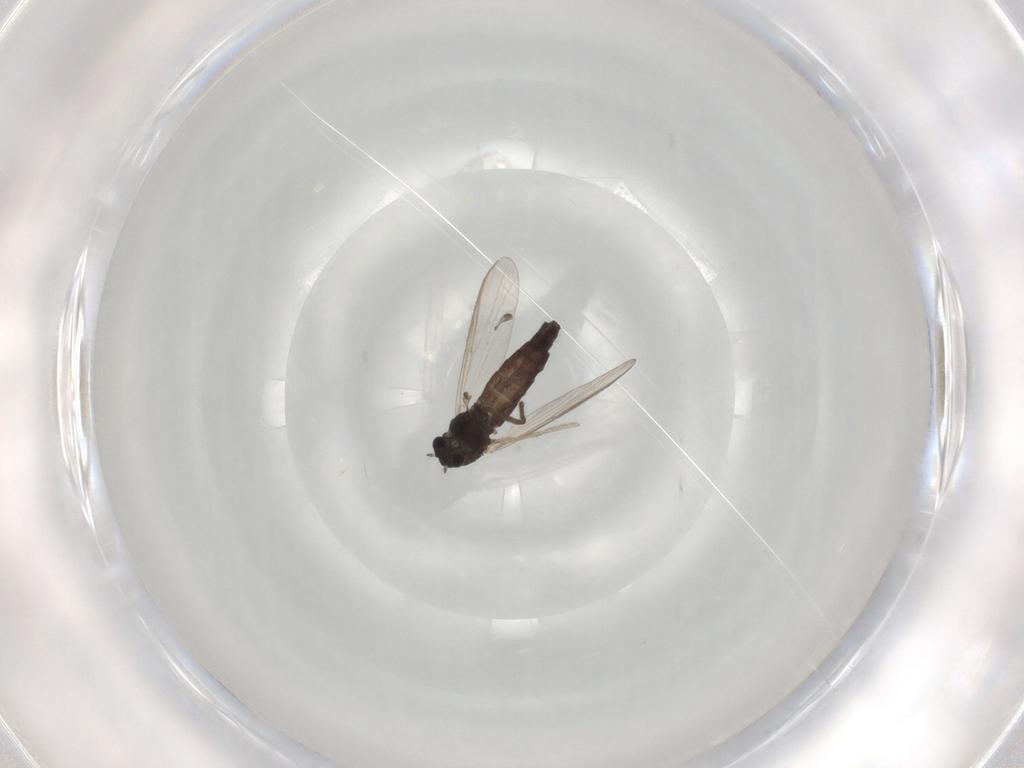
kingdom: Animalia
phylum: Arthropoda
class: Insecta
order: Diptera
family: Cecidomyiidae
